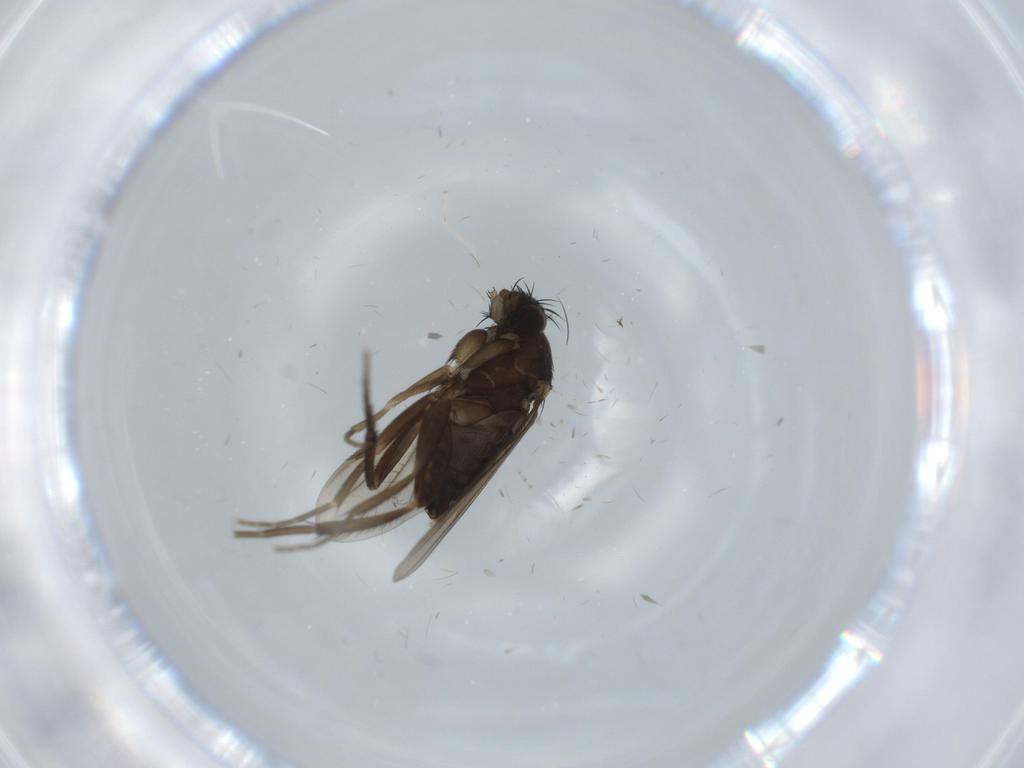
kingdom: Animalia
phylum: Arthropoda
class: Insecta
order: Diptera
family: Phoridae
